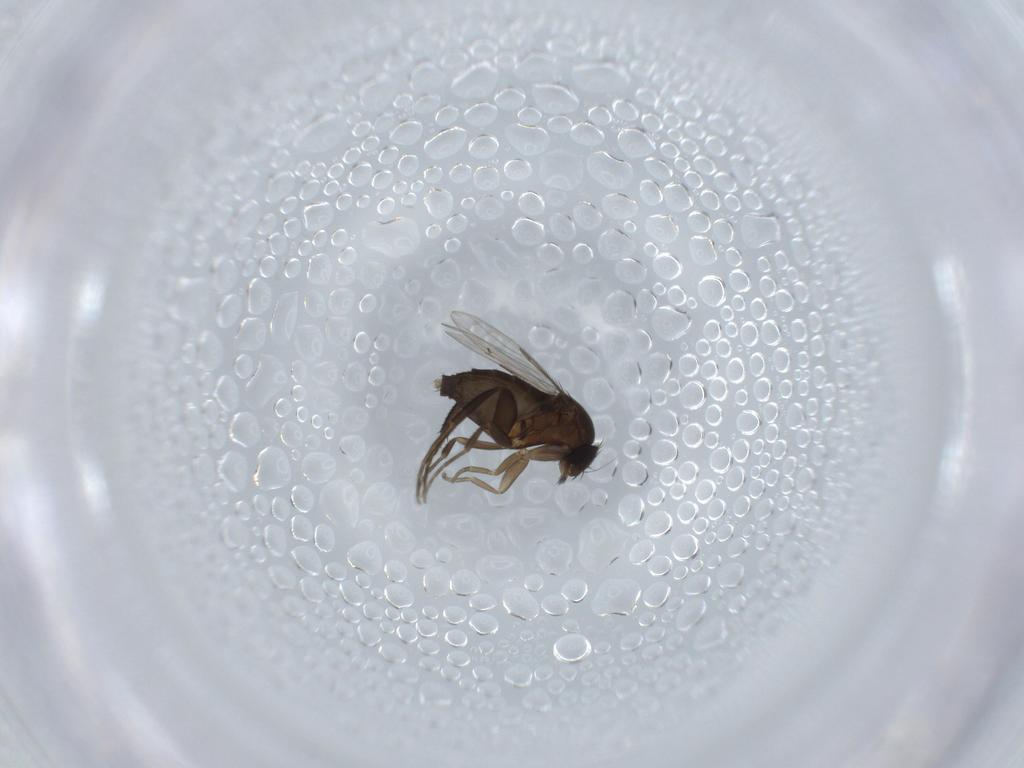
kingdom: Animalia
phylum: Arthropoda
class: Insecta
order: Diptera
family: Phoridae
